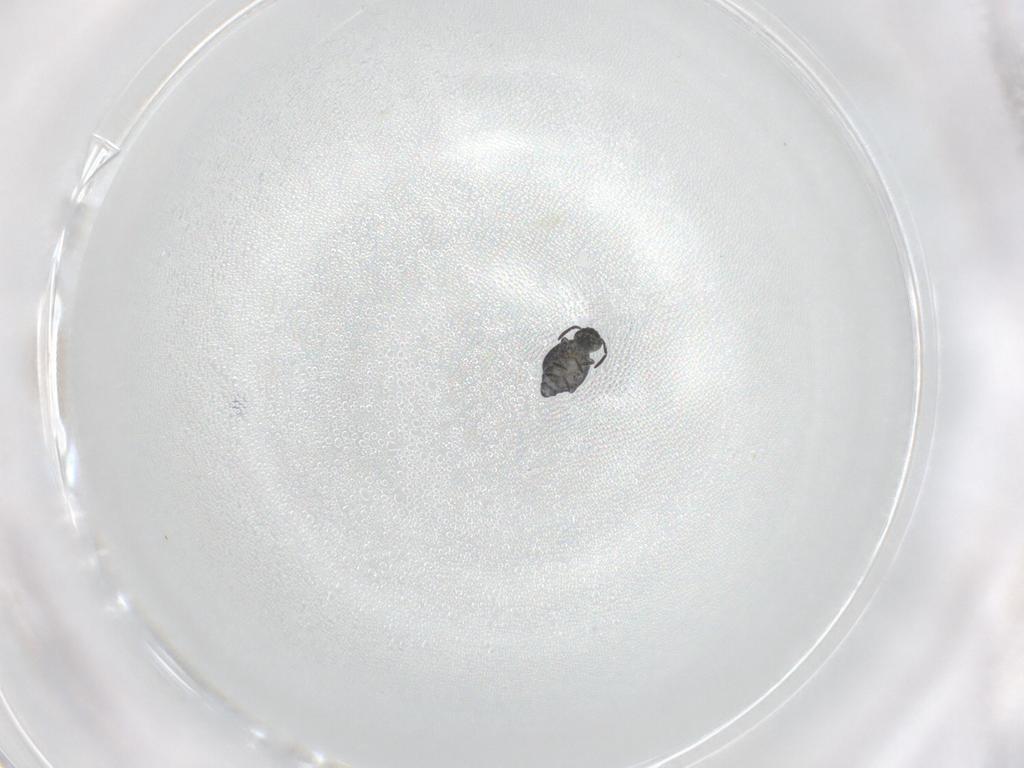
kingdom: Animalia
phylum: Arthropoda
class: Collembola
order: Symphypleona
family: Katiannidae
